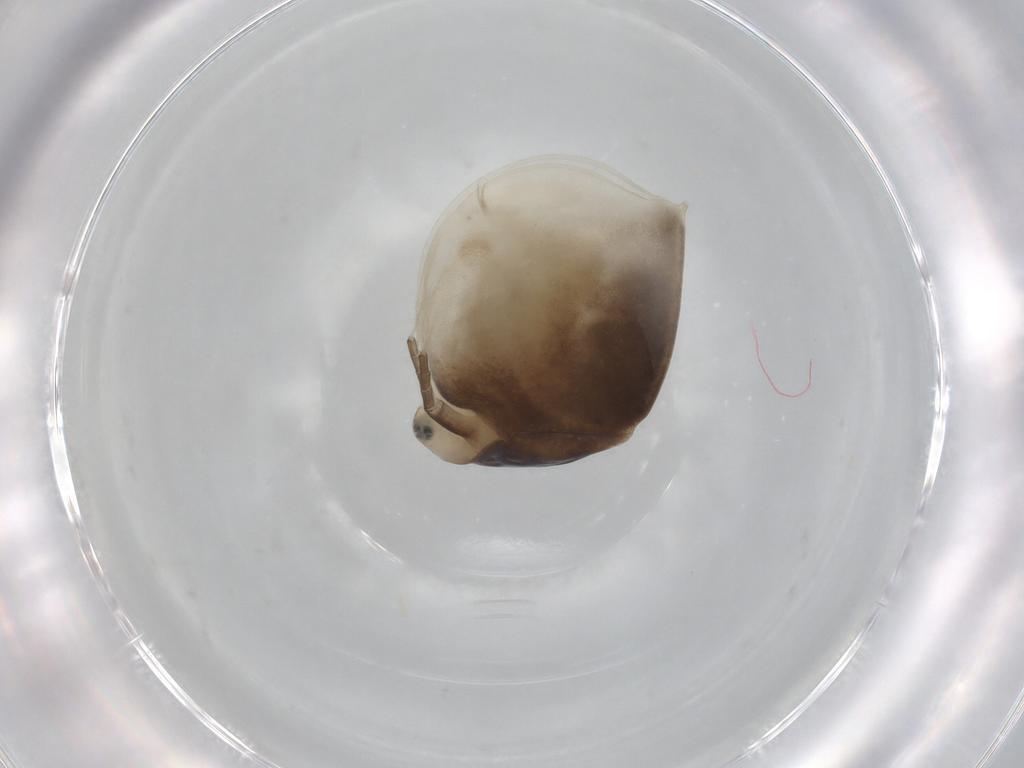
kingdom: Animalia
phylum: Arthropoda
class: Branchiopoda
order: Diplostraca
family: Daphniidae
